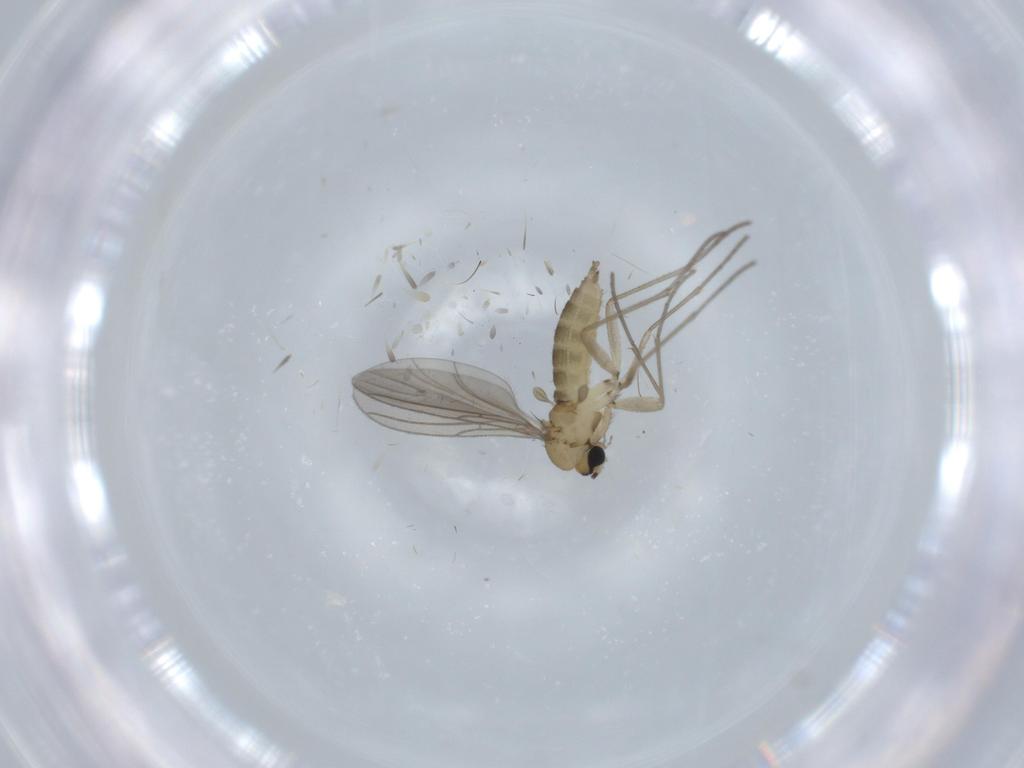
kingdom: Animalia
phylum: Arthropoda
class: Insecta
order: Diptera
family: Sciaridae
